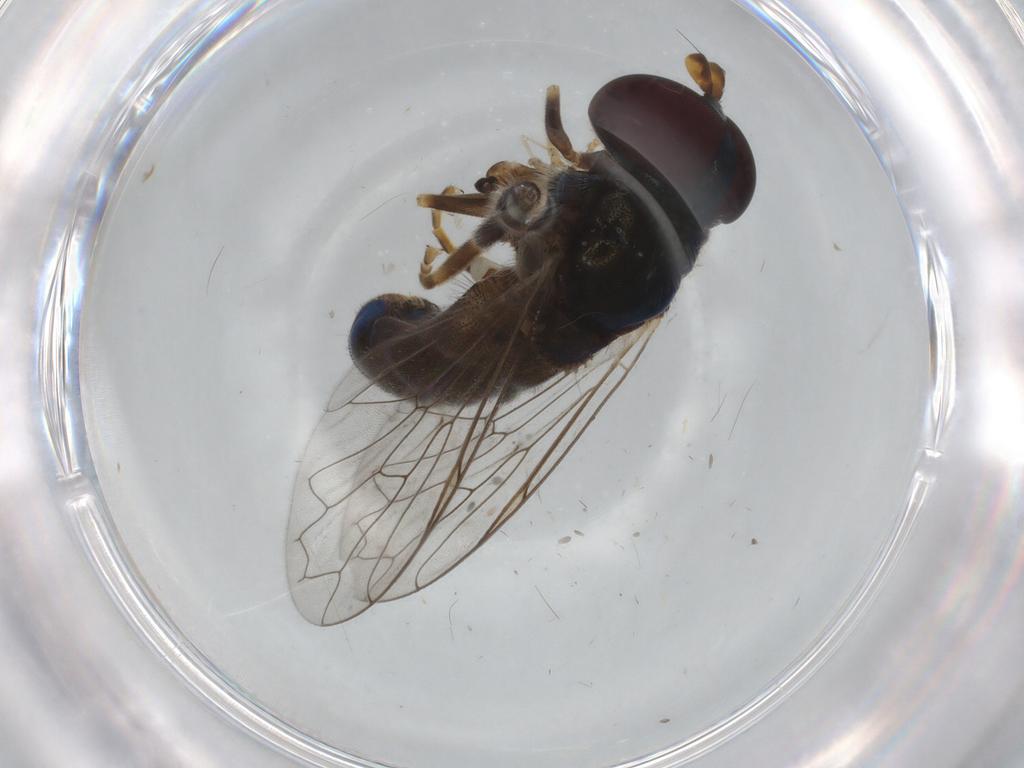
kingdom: Animalia
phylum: Arthropoda
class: Insecta
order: Diptera
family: Syrphidae
